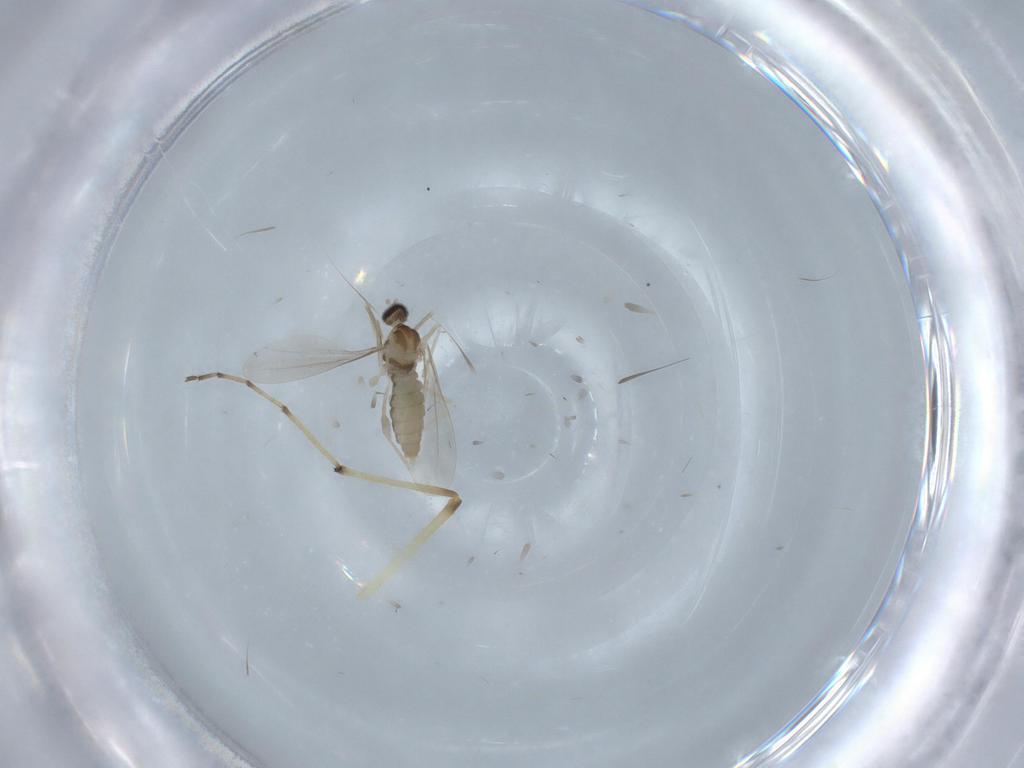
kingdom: Animalia
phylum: Arthropoda
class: Insecta
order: Diptera
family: Cecidomyiidae
